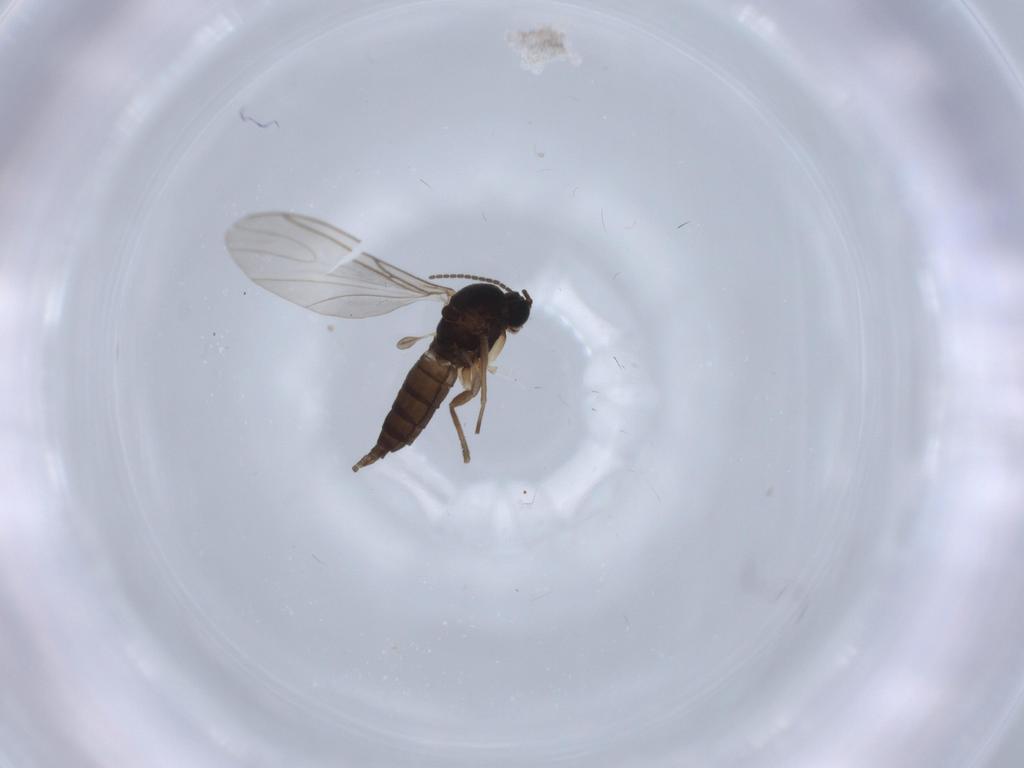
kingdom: Animalia
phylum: Arthropoda
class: Insecta
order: Diptera
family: Sciaridae
